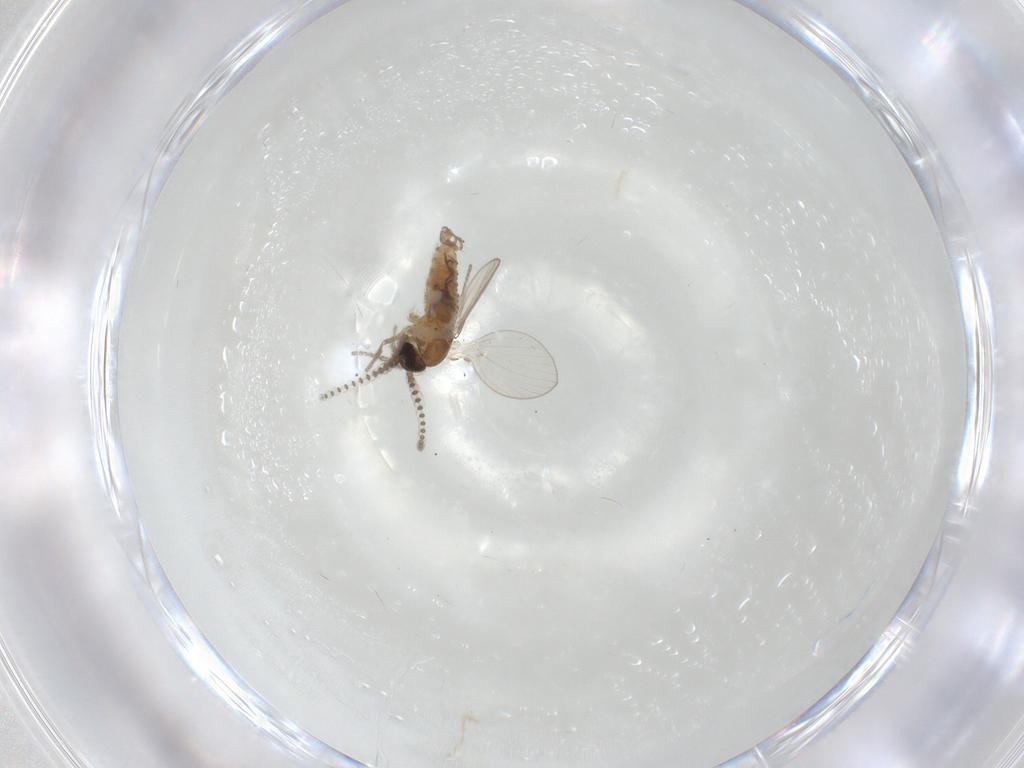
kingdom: Animalia
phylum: Arthropoda
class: Insecta
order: Diptera
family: Psychodidae
